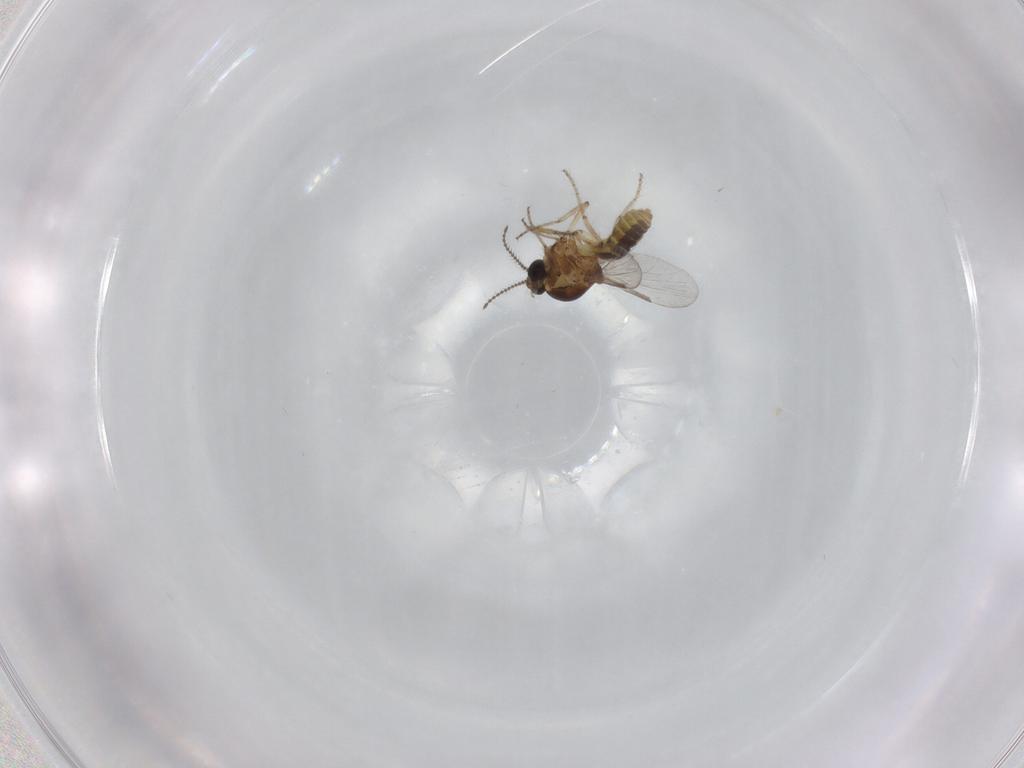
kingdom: Animalia
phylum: Arthropoda
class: Insecta
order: Diptera
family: Ceratopogonidae
